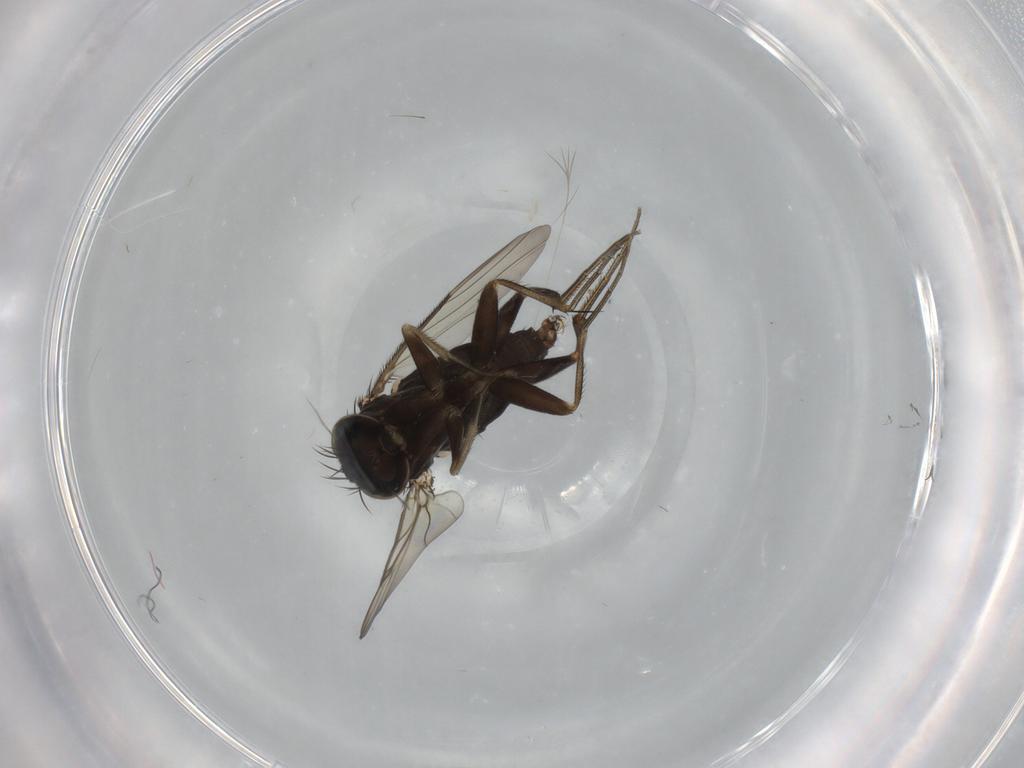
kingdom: Animalia
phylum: Arthropoda
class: Insecta
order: Diptera
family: Phoridae
